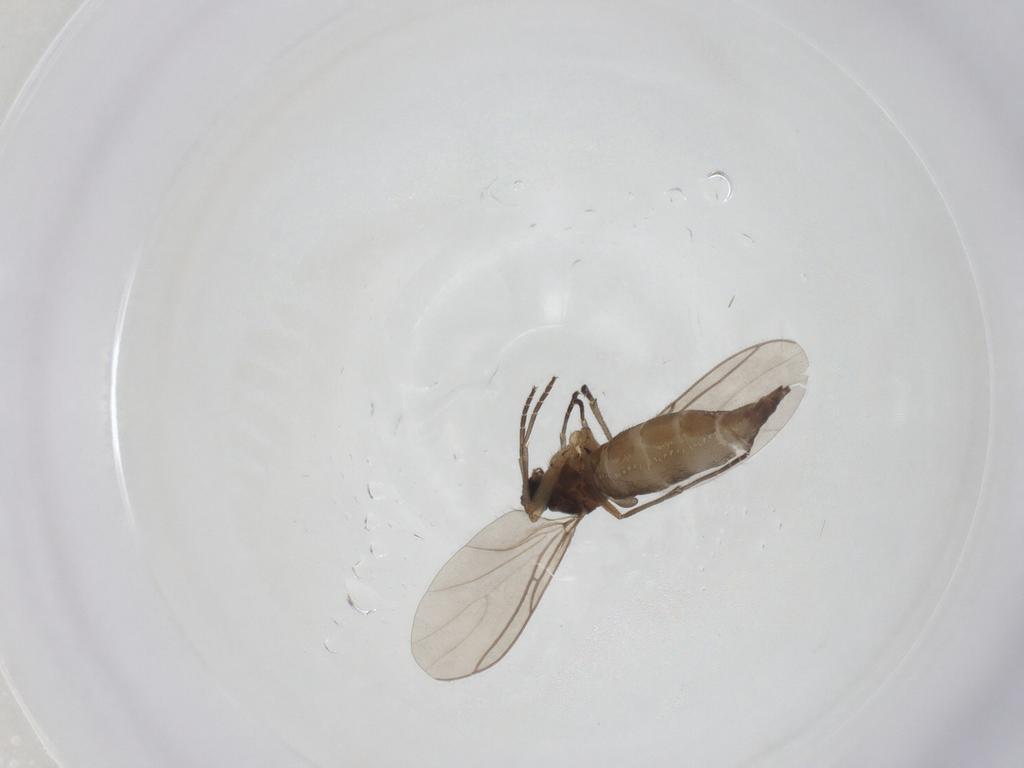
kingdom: Animalia
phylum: Arthropoda
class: Insecta
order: Diptera
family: Sciaridae
